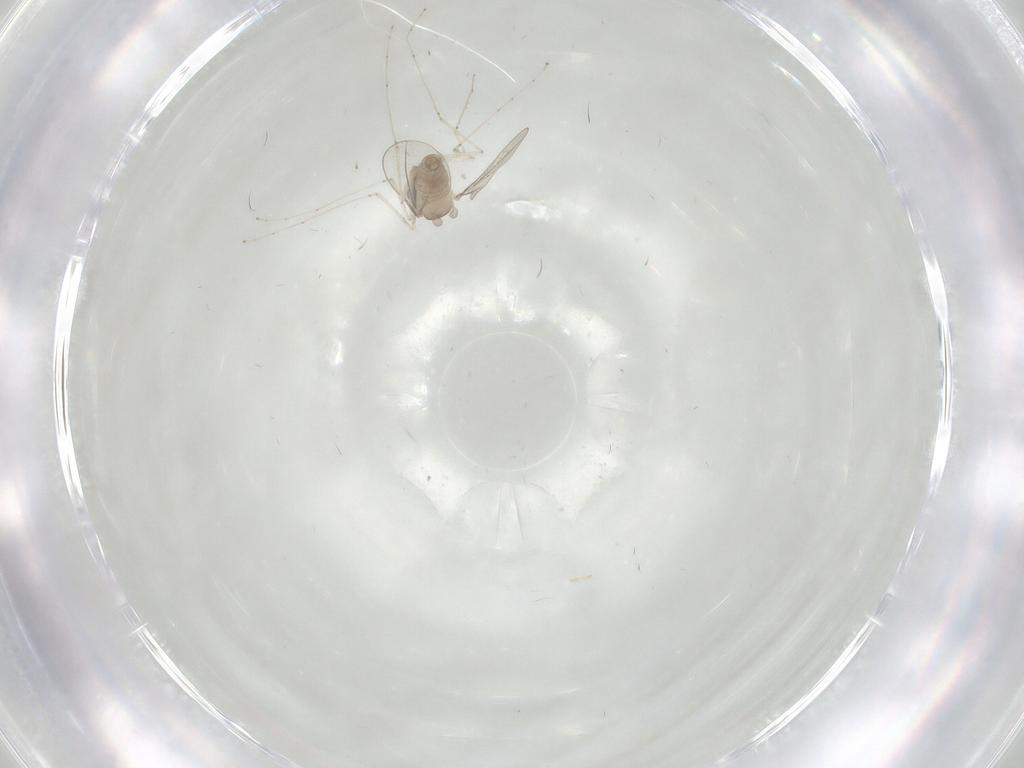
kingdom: Animalia
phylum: Arthropoda
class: Insecta
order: Diptera
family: Cecidomyiidae
